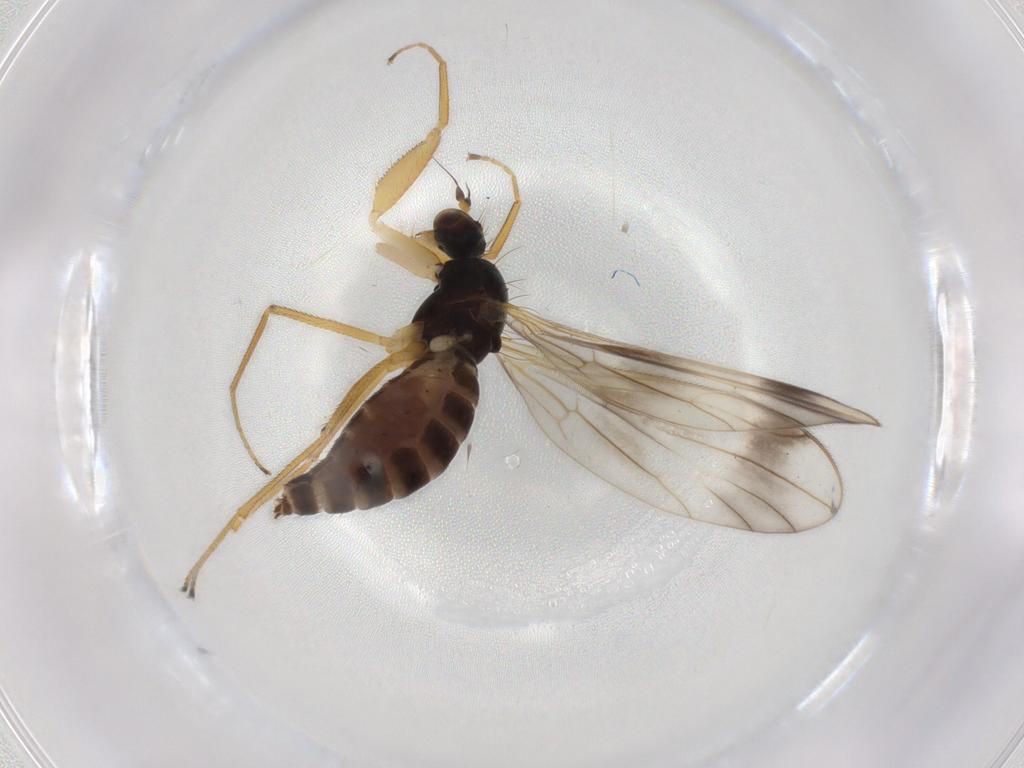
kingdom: Animalia
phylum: Arthropoda
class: Insecta
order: Diptera
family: Empididae
